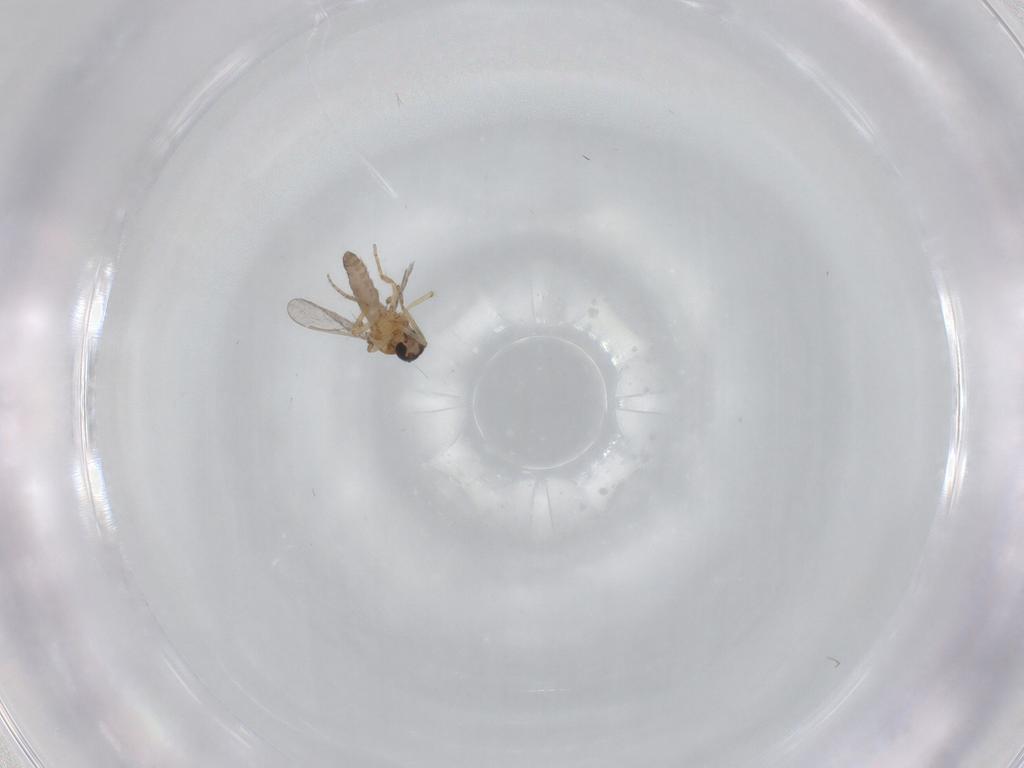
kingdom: Animalia
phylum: Arthropoda
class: Insecta
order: Diptera
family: Ceratopogonidae
